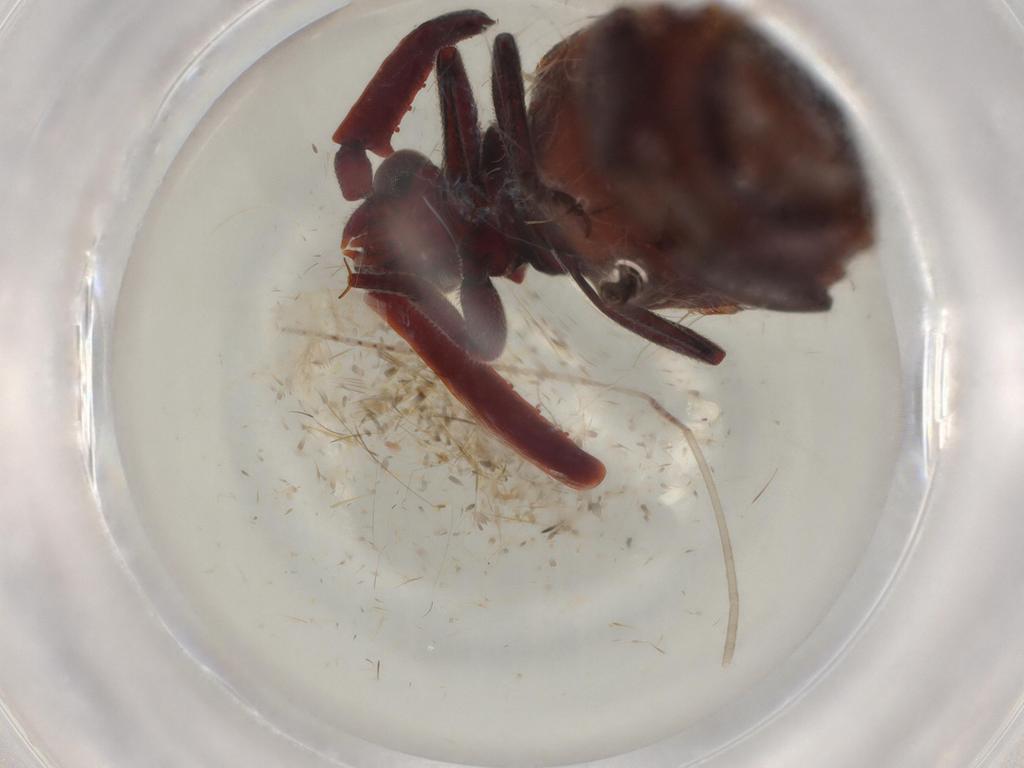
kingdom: Animalia
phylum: Arthropoda
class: Insecta
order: Coleoptera
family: Carabidae
